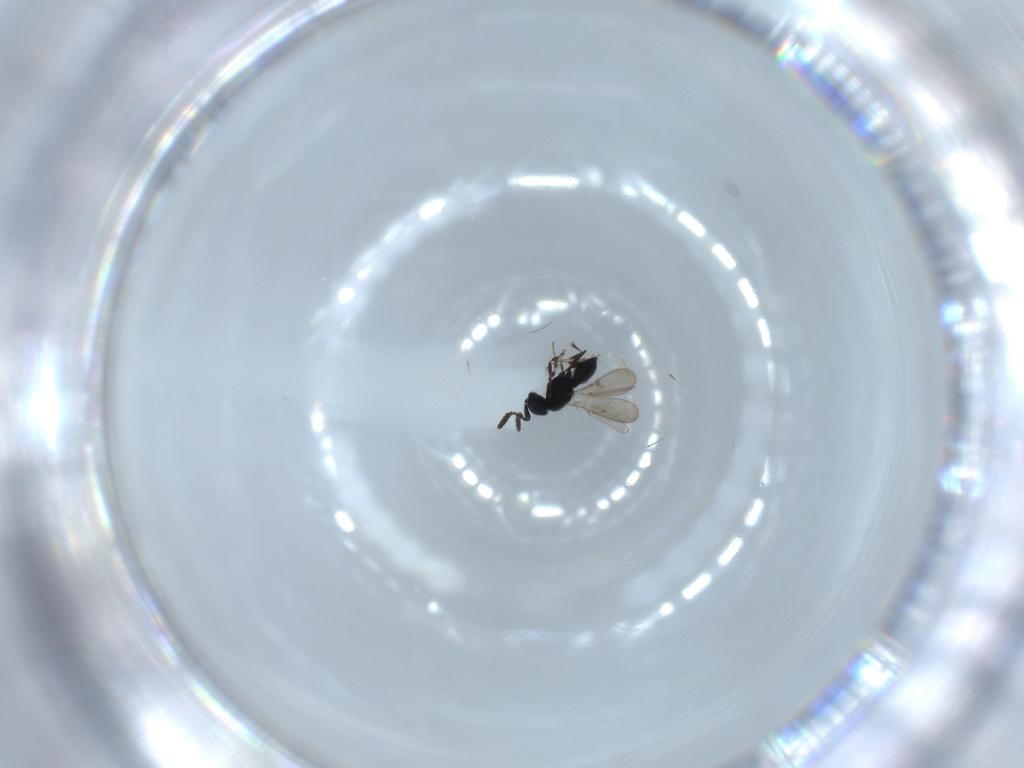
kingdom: Animalia
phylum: Arthropoda
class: Insecta
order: Hymenoptera
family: Scelionidae
